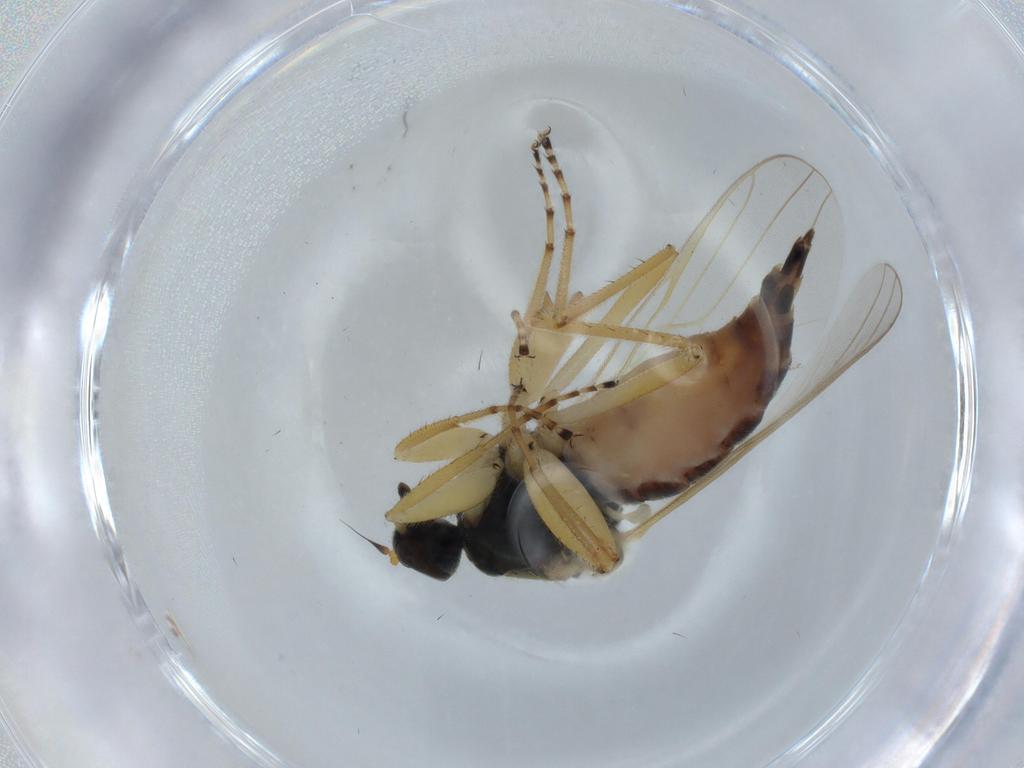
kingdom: Animalia
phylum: Arthropoda
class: Insecta
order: Diptera
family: Hybotidae
